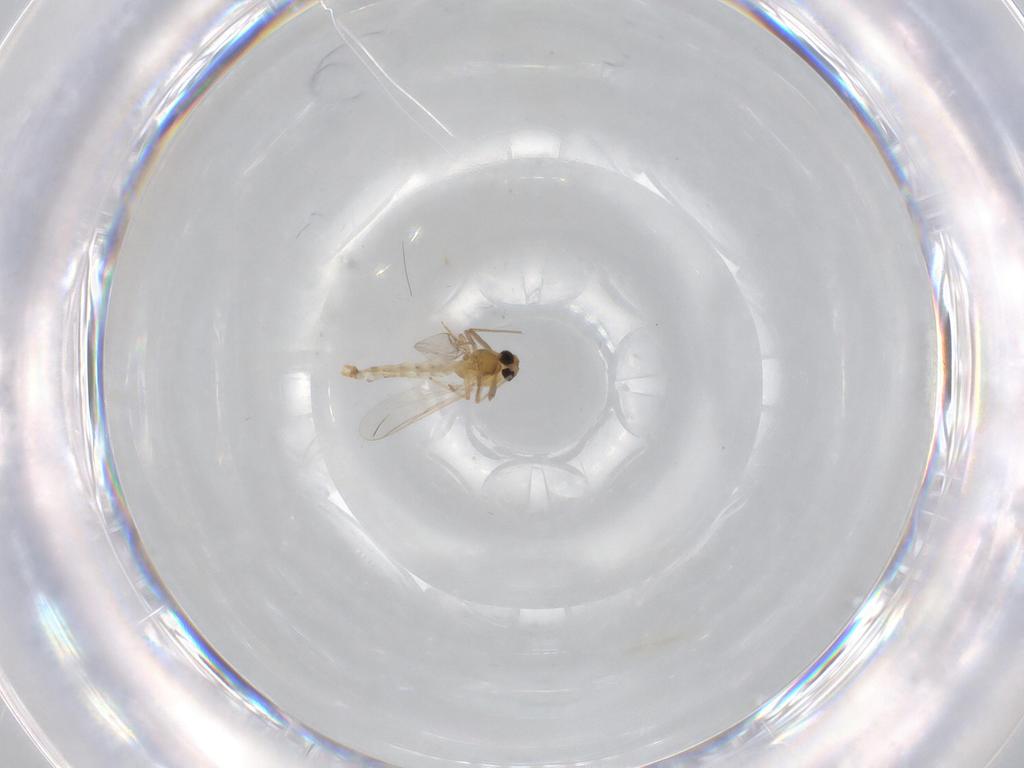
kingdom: Animalia
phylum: Arthropoda
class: Insecta
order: Diptera
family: Chironomidae
